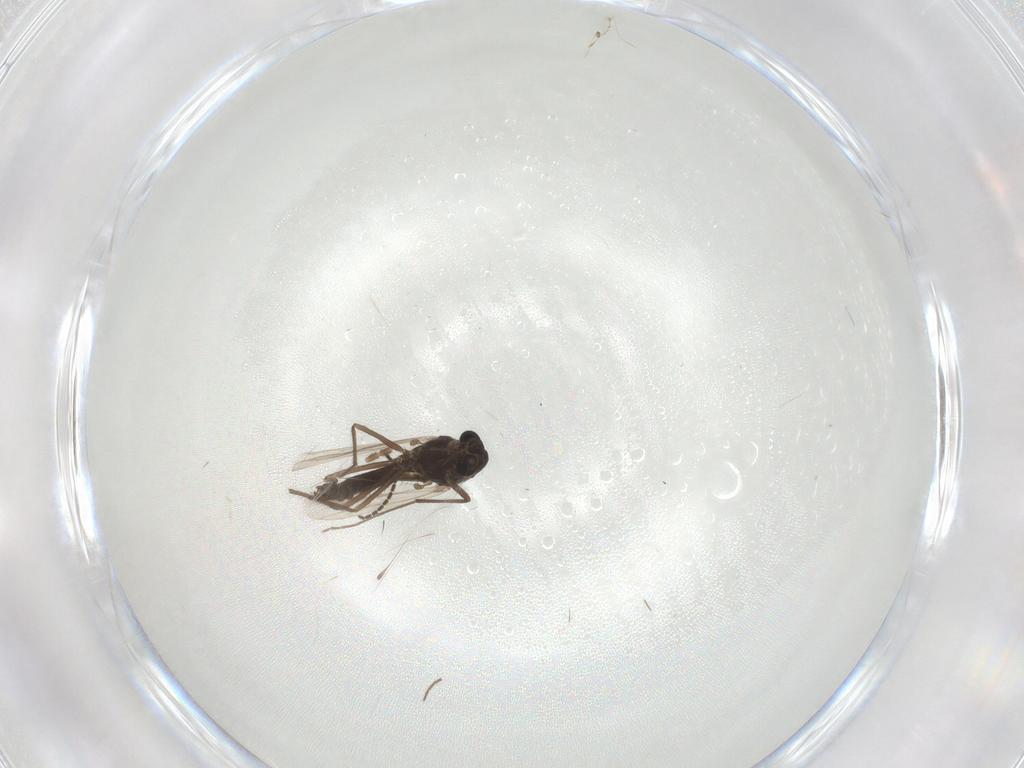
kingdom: Animalia
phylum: Arthropoda
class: Insecta
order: Diptera
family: Chironomidae
